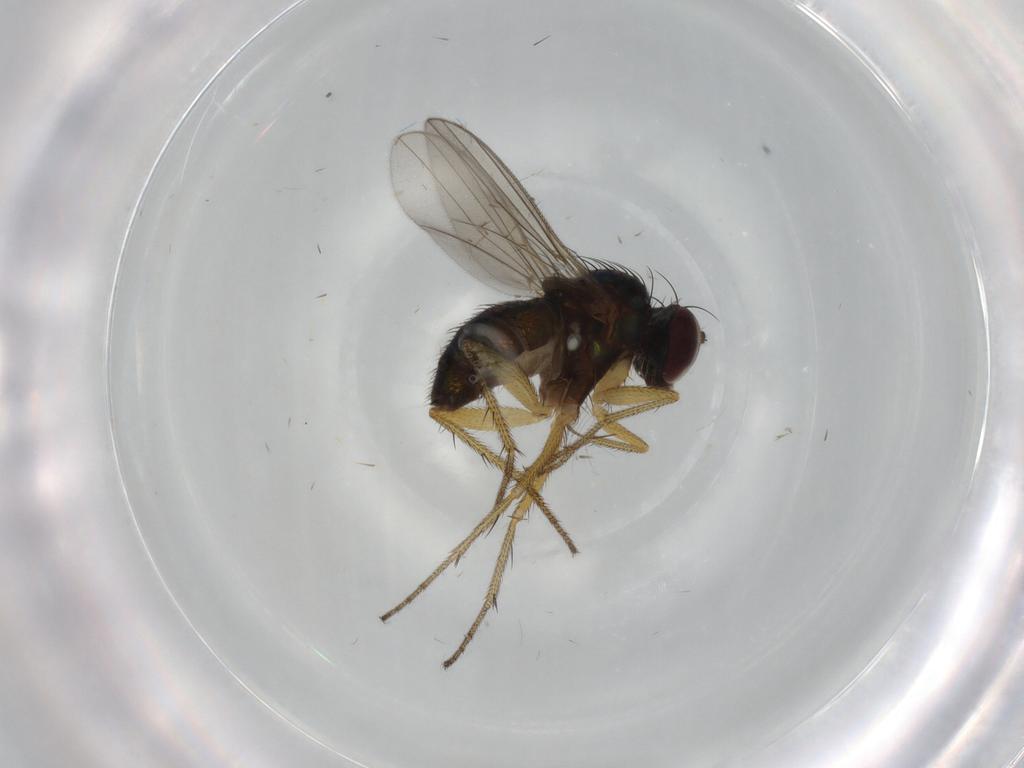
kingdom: Animalia
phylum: Arthropoda
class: Insecta
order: Diptera
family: Dolichopodidae
